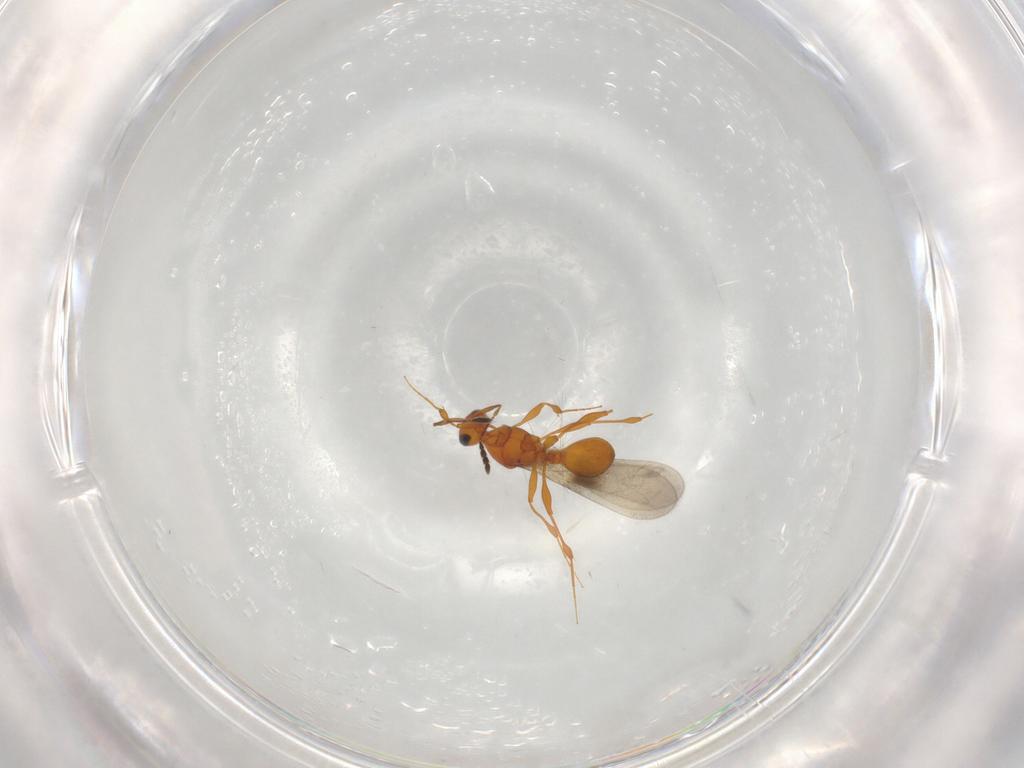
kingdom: Animalia
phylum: Arthropoda
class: Insecta
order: Hymenoptera
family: Platygastridae
